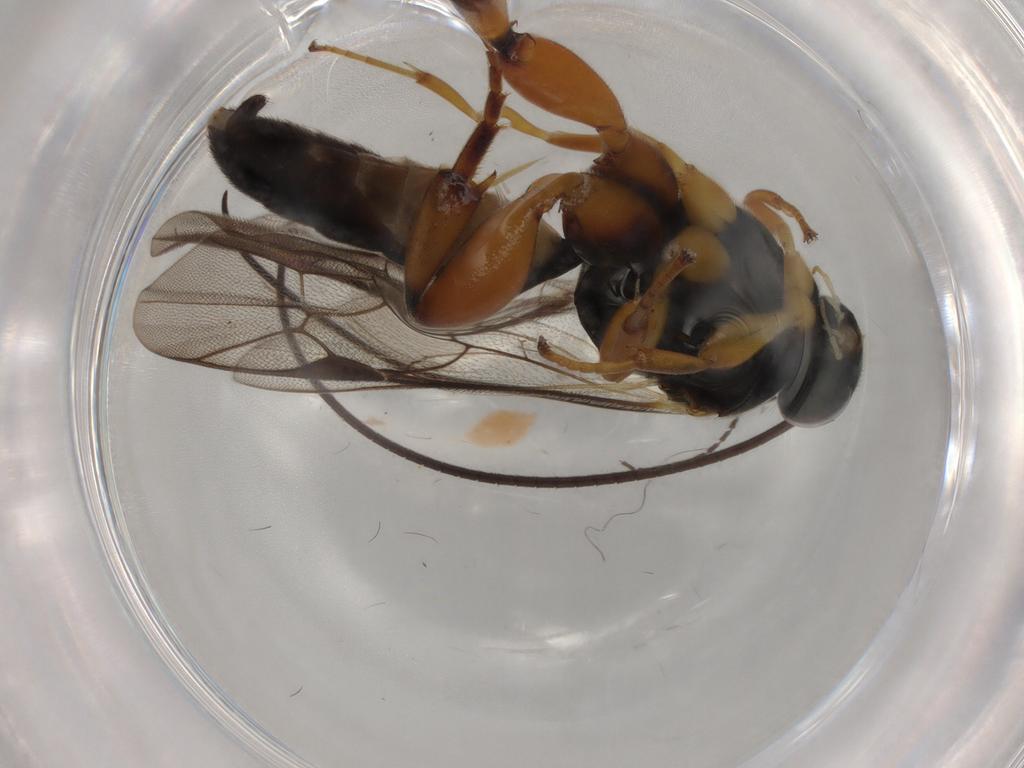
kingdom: Animalia
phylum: Arthropoda
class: Insecta
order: Hymenoptera
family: Ichneumonidae
